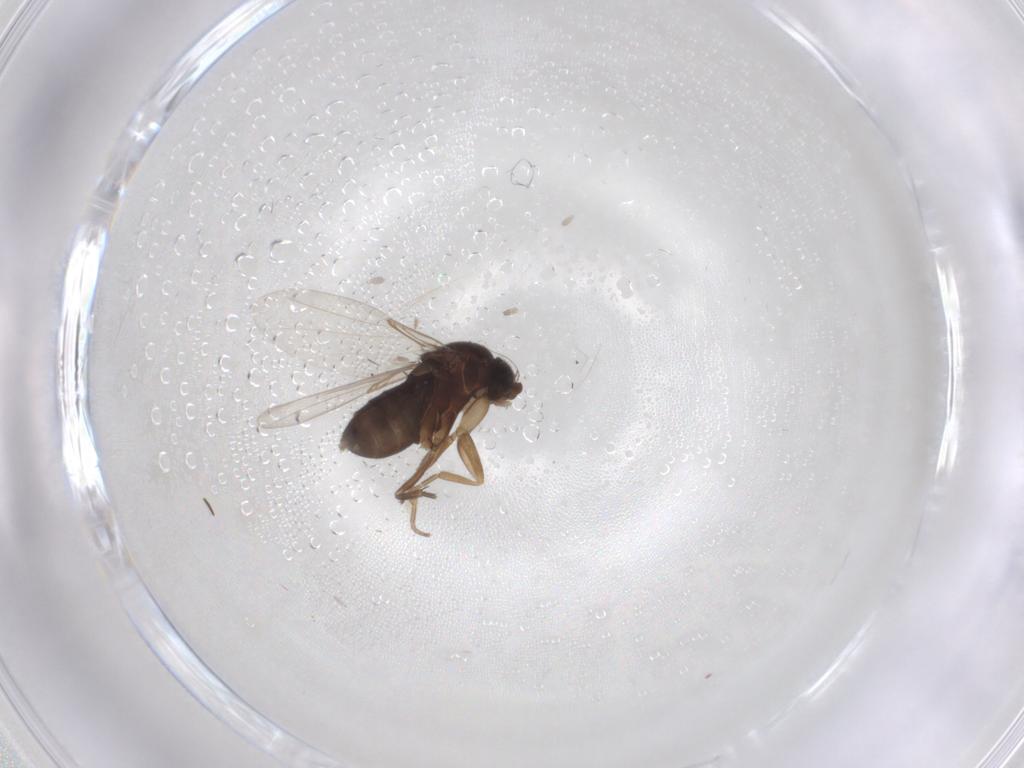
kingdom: Animalia
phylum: Arthropoda
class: Insecta
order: Diptera
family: Phoridae
